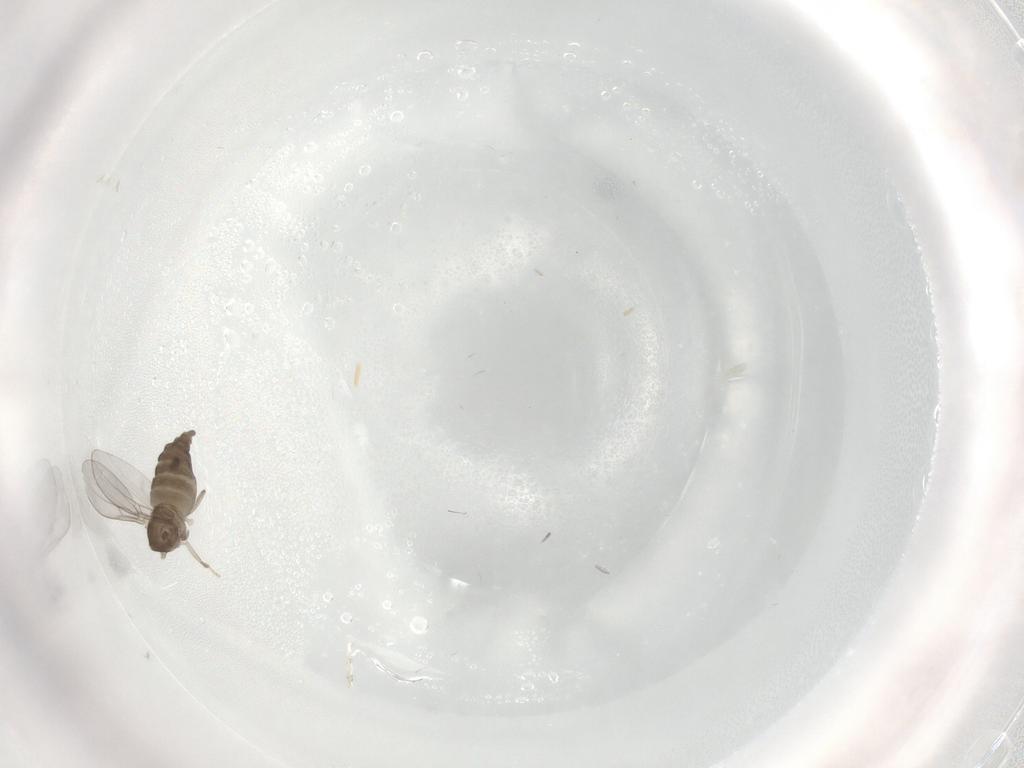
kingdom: Animalia
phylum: Arthropoda
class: Insecta
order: Diptera
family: Cecidomyiidae
